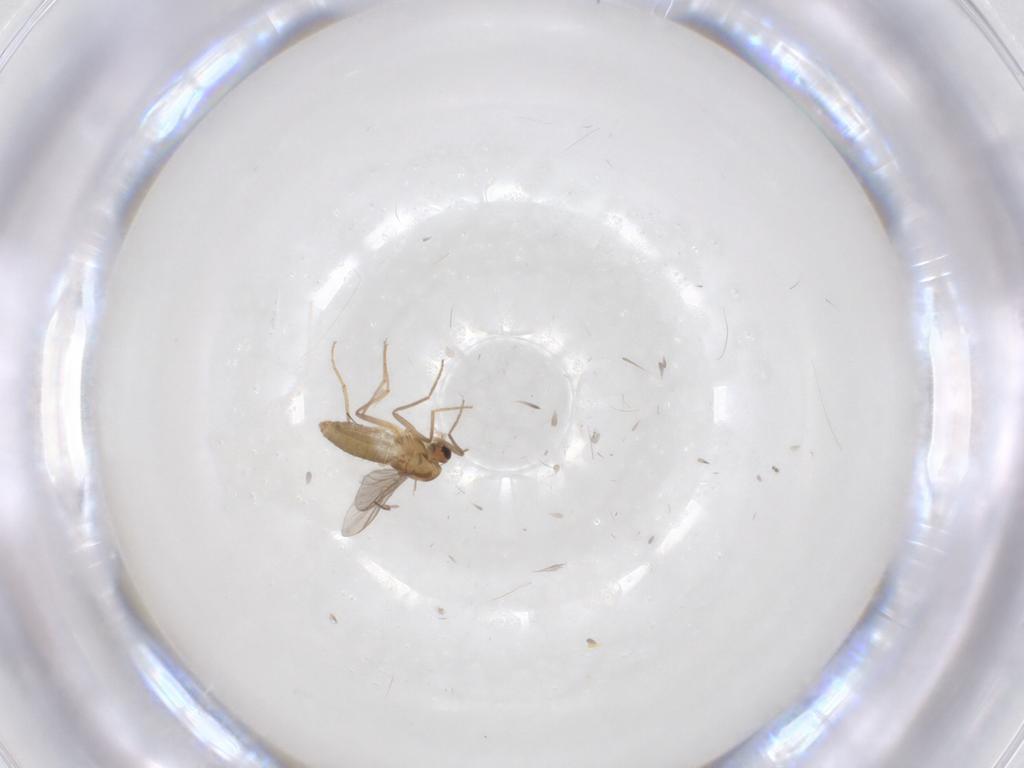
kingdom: Animalia
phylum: Arthropoda
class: Insecta
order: Diptera
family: Chironomidae
